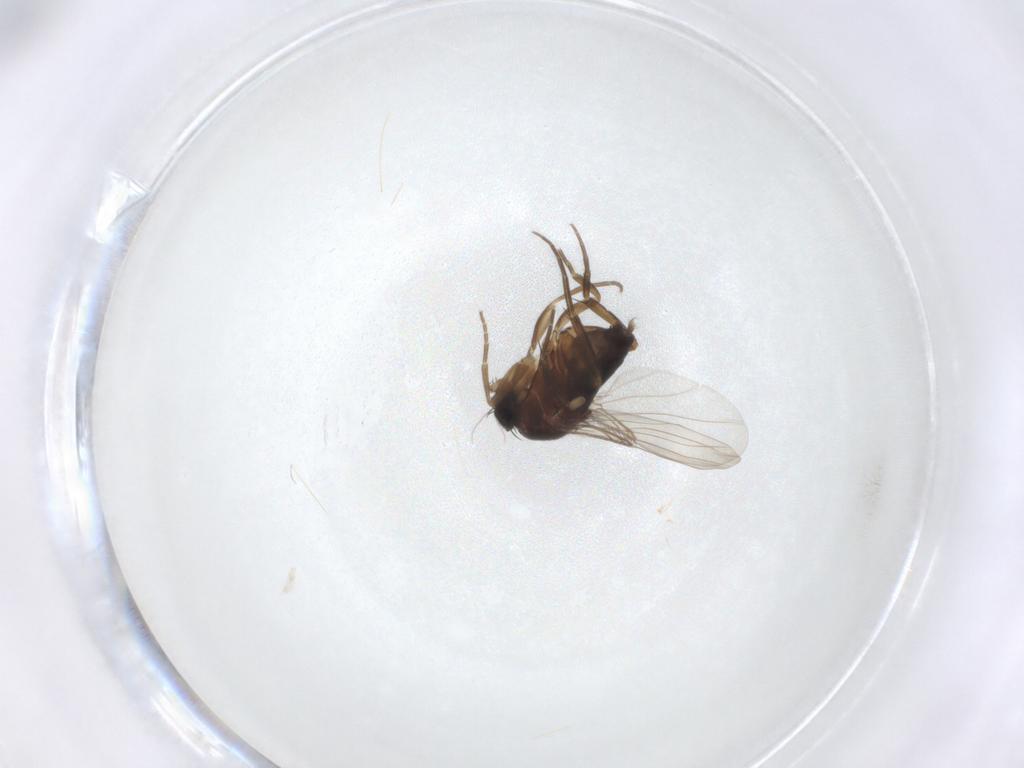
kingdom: Animalia
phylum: Arthropoda
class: Insecta
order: Diptera
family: Phoridae
